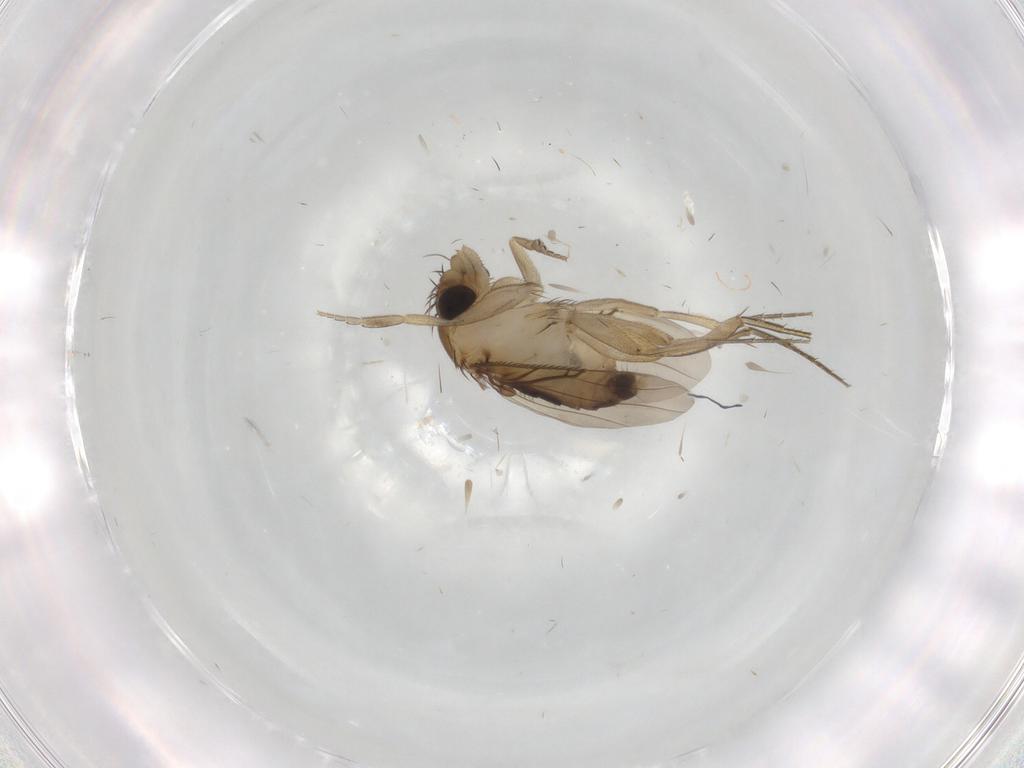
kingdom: Animalia
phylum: Arthropoda
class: Insecta
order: Diptera
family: Phoridae
